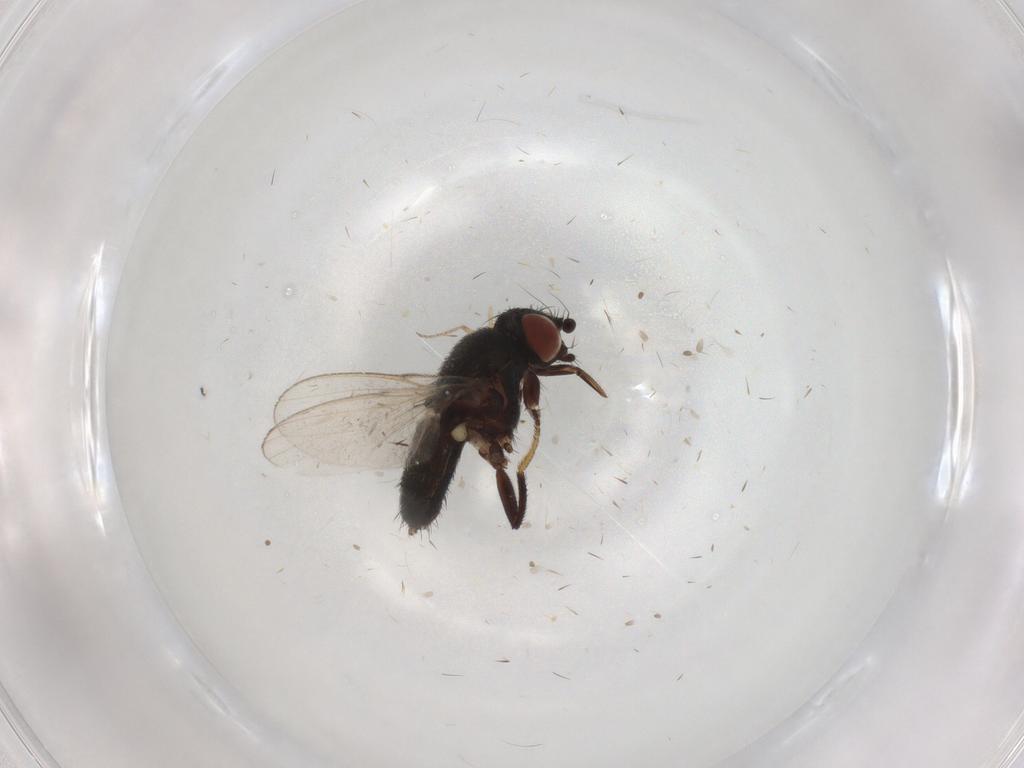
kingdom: Animalia
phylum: Arthropoda
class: Insecta
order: Diptera
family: Milichiidae
